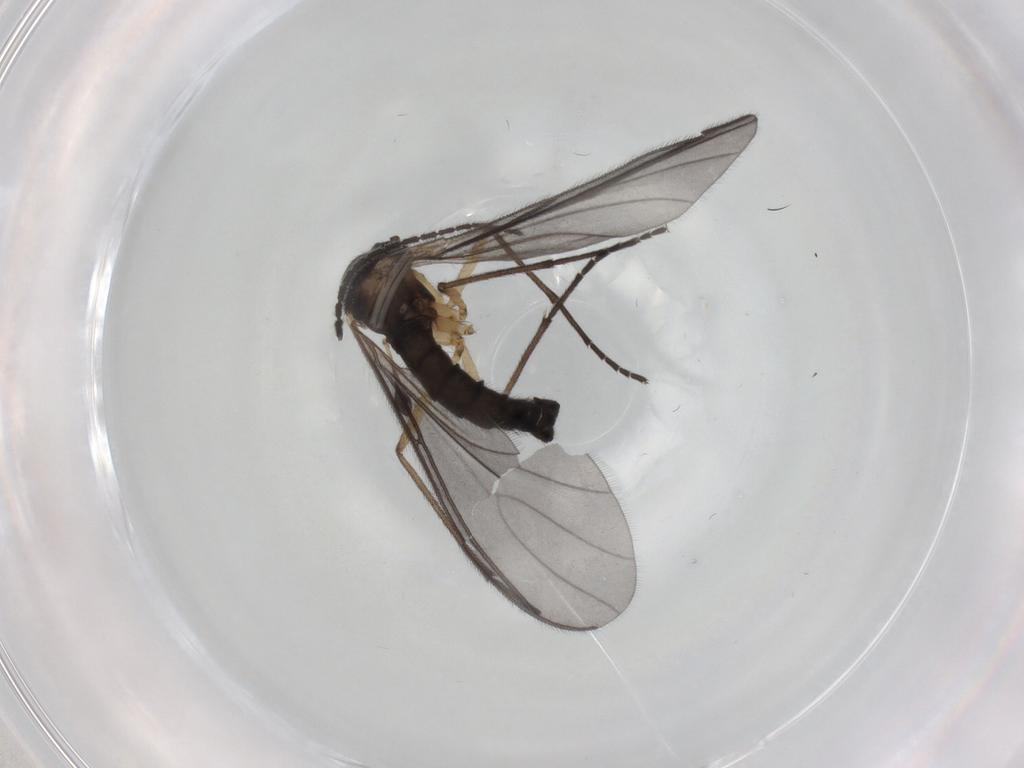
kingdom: Animalia
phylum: Arthropoda
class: Insecta
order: Diptera
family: Sciaridae
